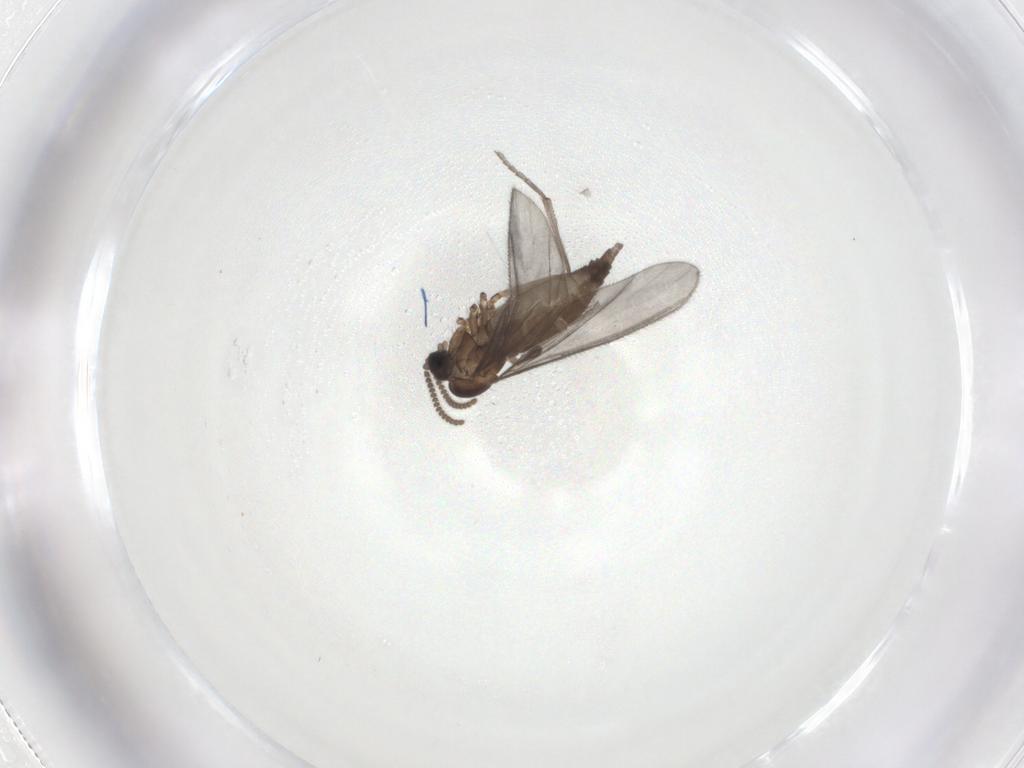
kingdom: Animalia
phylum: Arthropoda
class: Insecta
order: Diptera
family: Sciaridae
